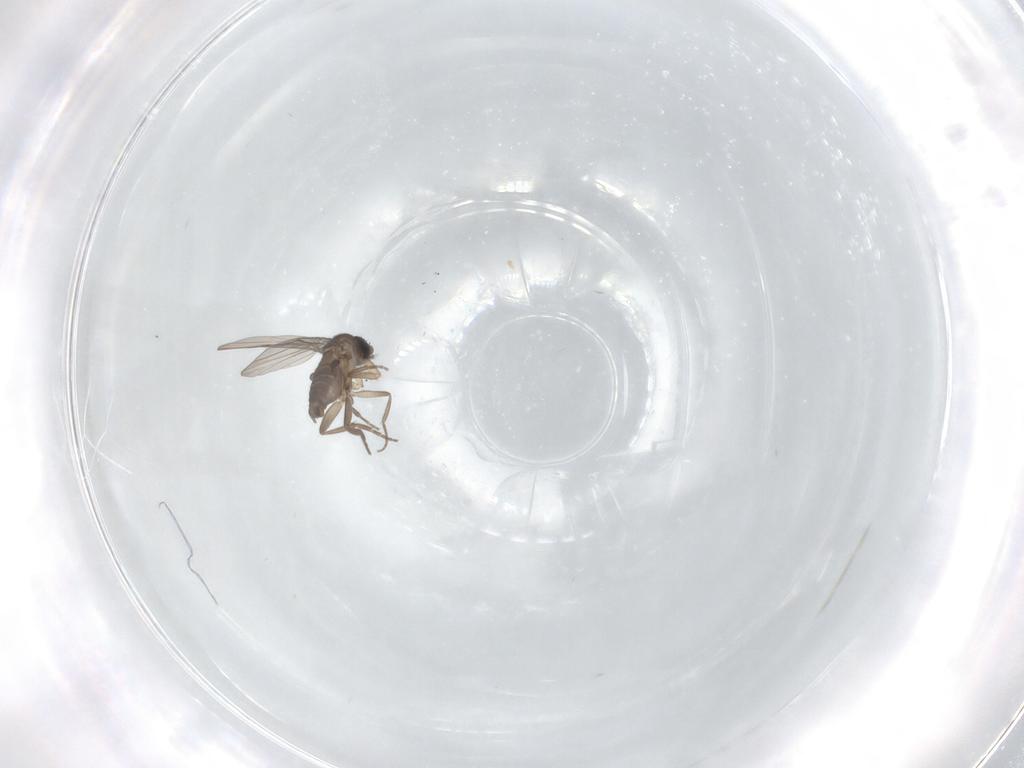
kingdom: Animalia
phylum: Arthropoda
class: Insecta
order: Diptera
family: Phoridae
